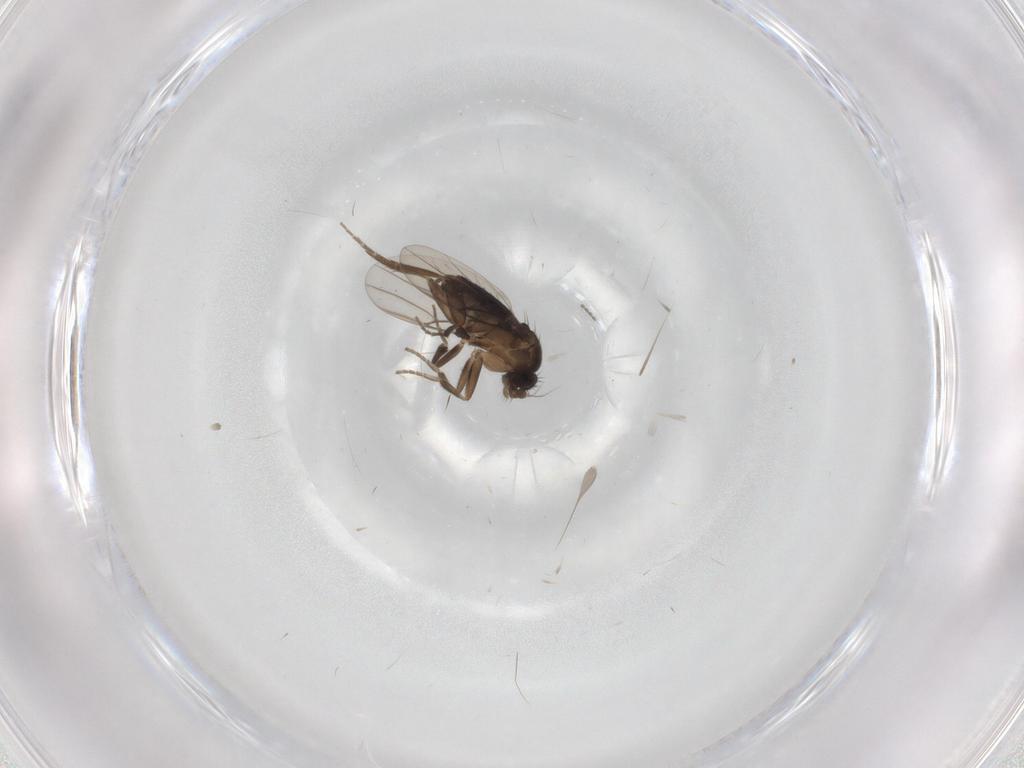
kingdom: Animalia
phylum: Arthropoda
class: Insecta
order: Diptera
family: Phoridae
